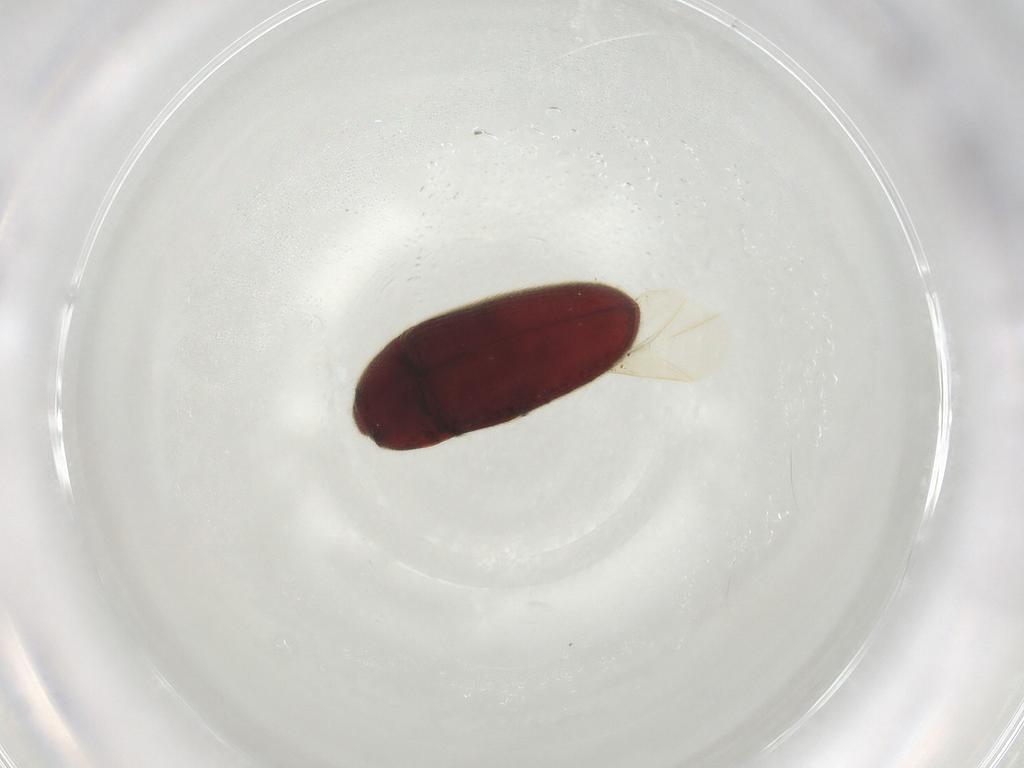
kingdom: Animalia
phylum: Arthropoda
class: Insecta
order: Coleoptera
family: Throscidae
